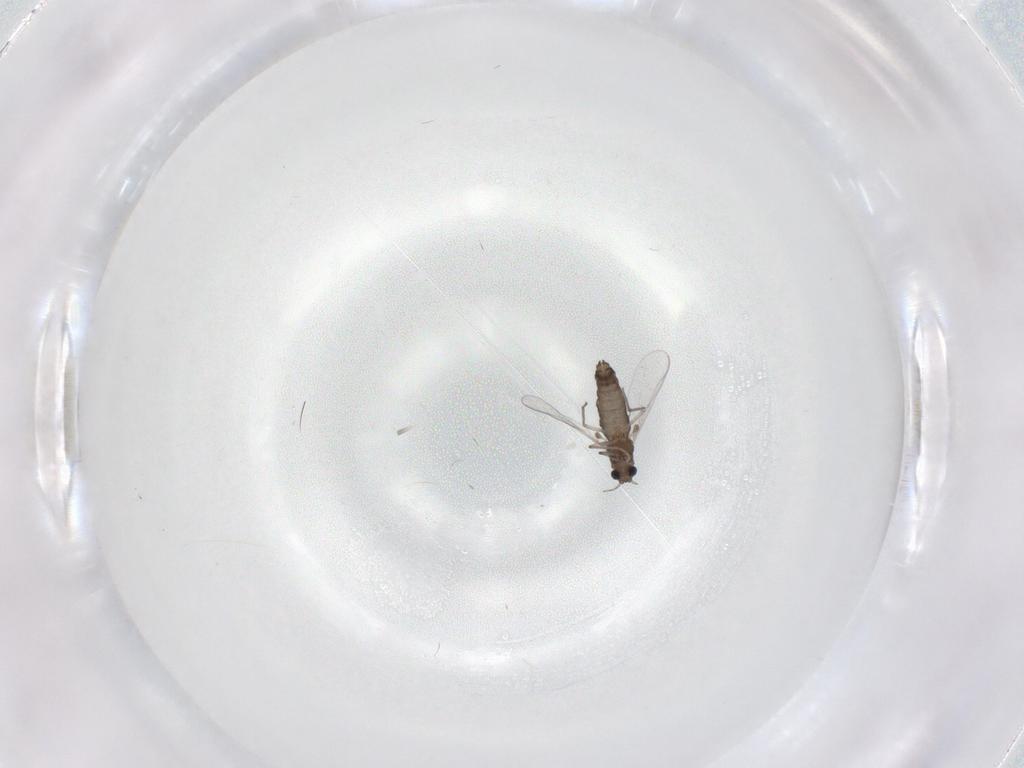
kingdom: Animalia
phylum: Arthropoda
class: Insecta
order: Diptera
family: Chironomidae
